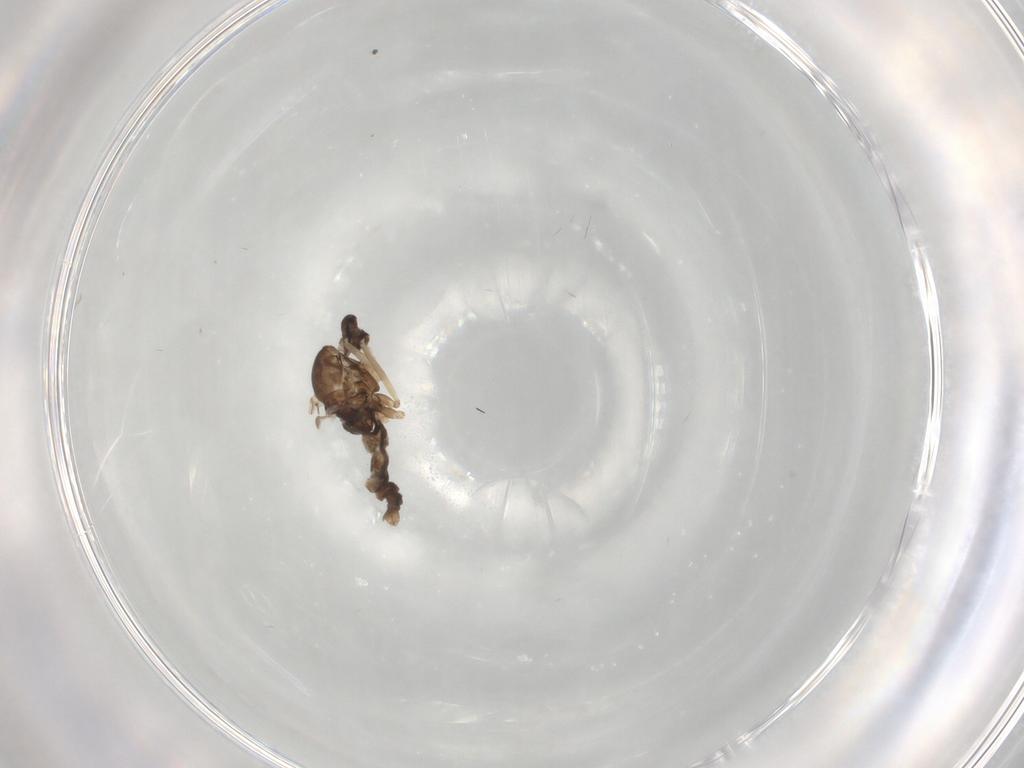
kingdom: Animalia
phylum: Arthropoda
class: Insecta
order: Diptera
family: Cecidomyiidae
